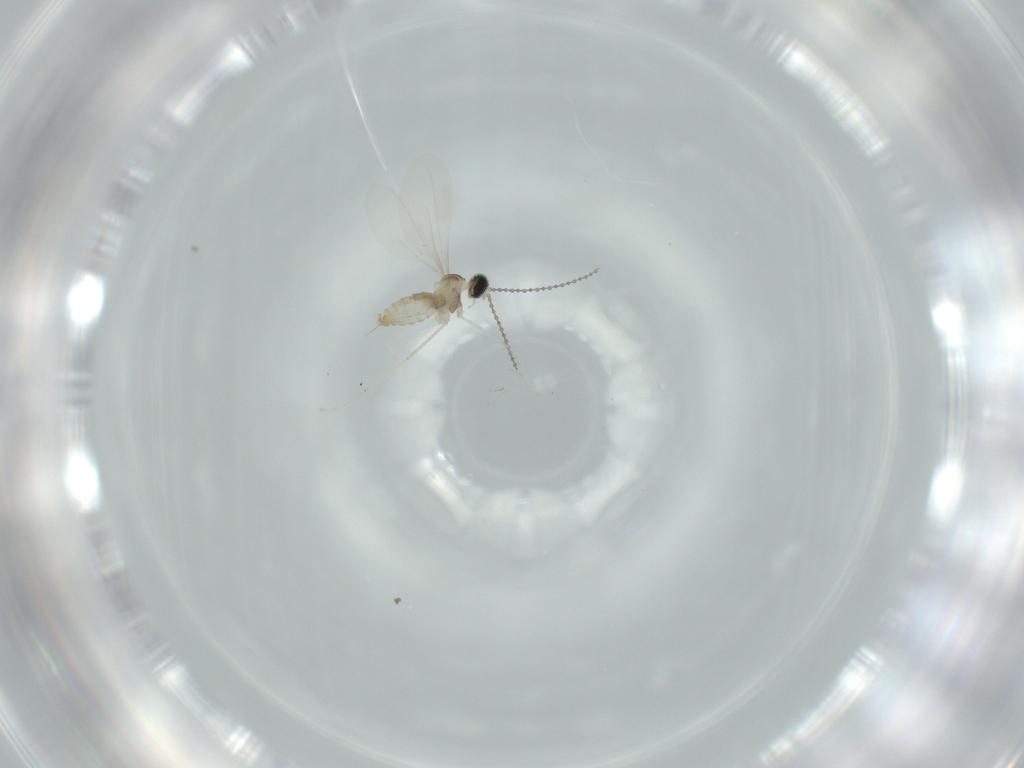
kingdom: Animalia
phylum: Arthropoda
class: Insecta
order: Diptera
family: Cecidomyiidae
